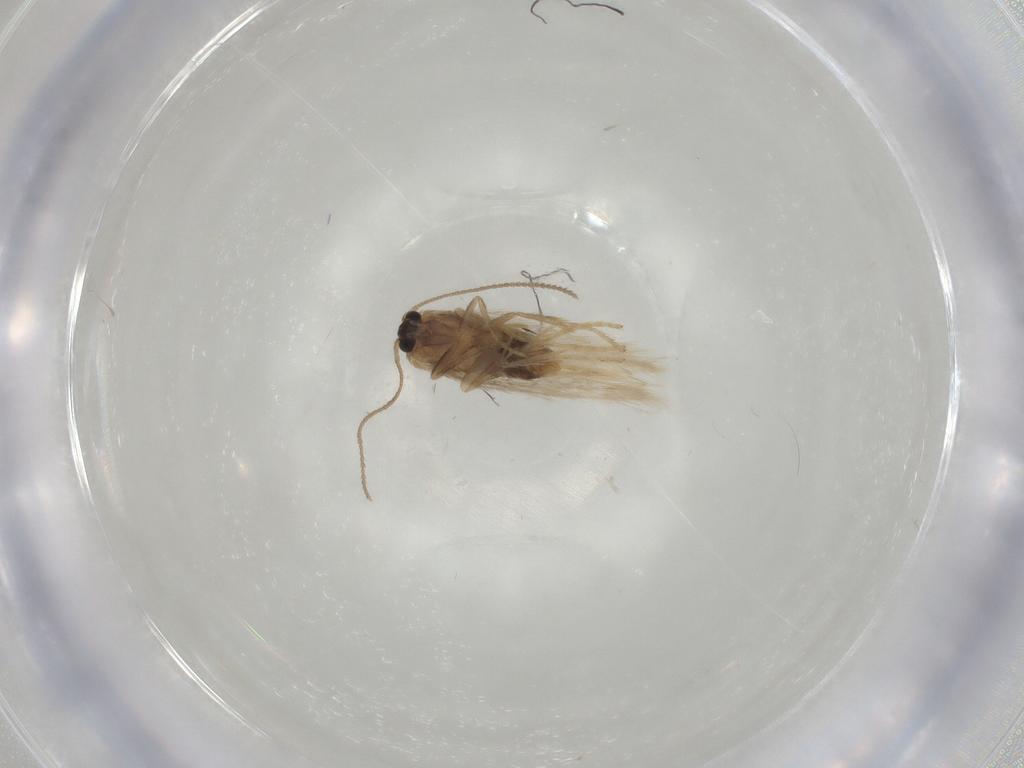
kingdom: Animalia
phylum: Arthropoda
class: Insecta
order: Lepidoptera
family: Nepticulidae
